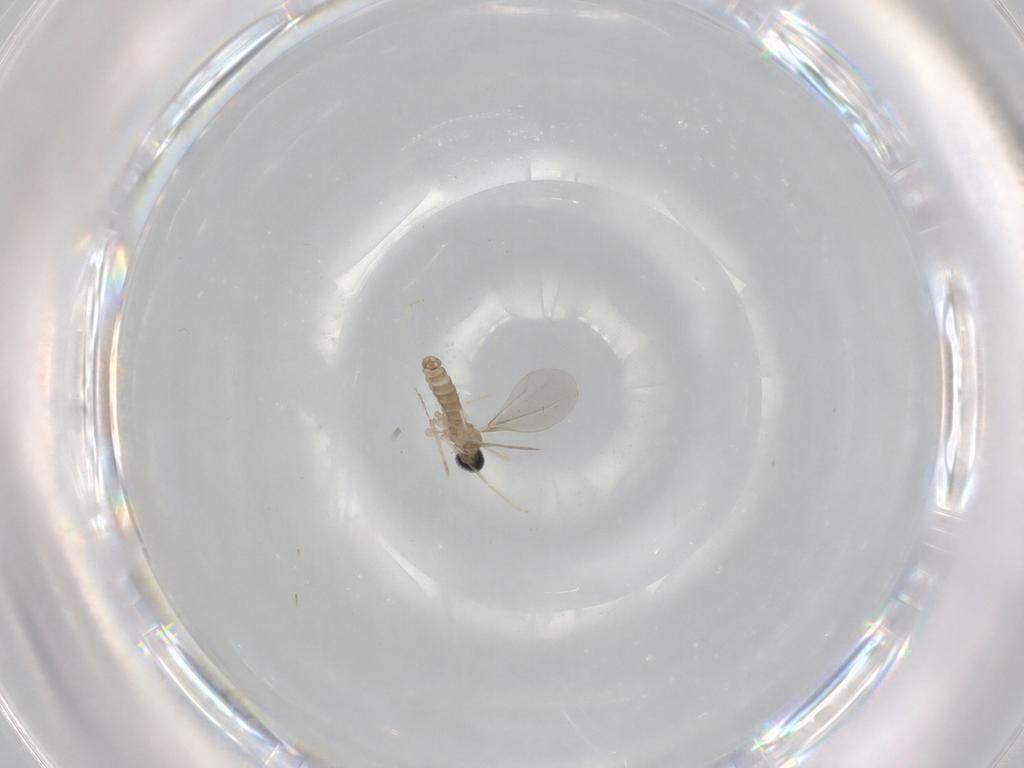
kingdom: Animalia
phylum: Arthropoda
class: Insecta
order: Diptera
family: Cecidomyiidae
